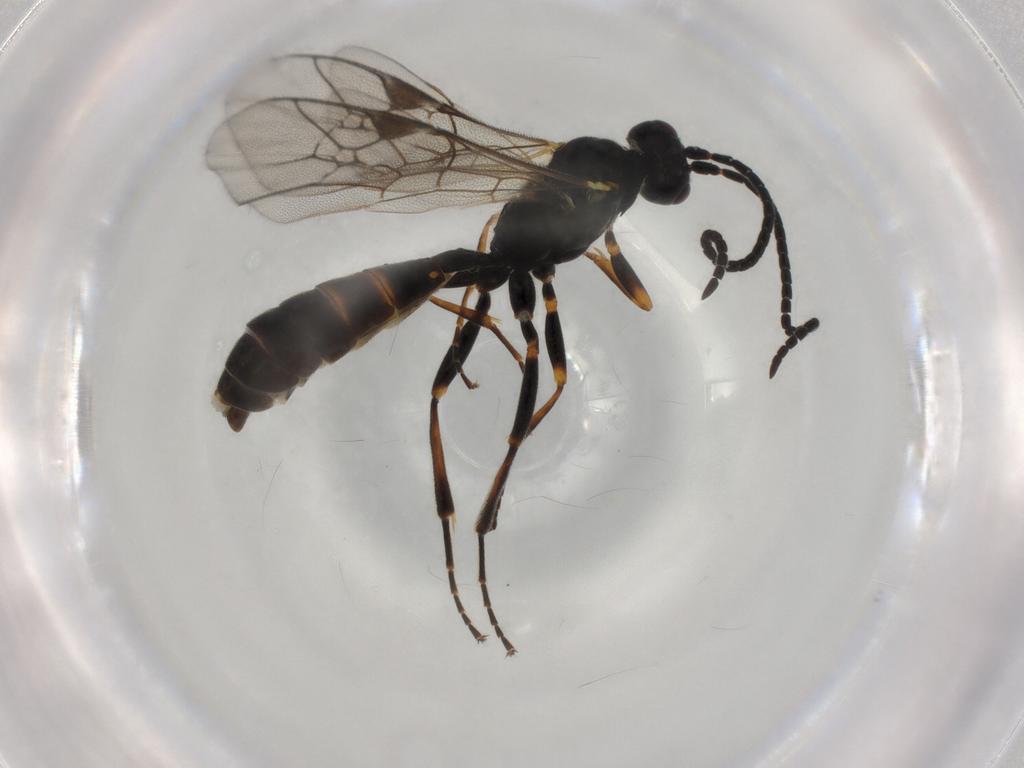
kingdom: Animalia
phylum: Arthropoda
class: Insecta
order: Hymenoptera
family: Ichneumonidae
